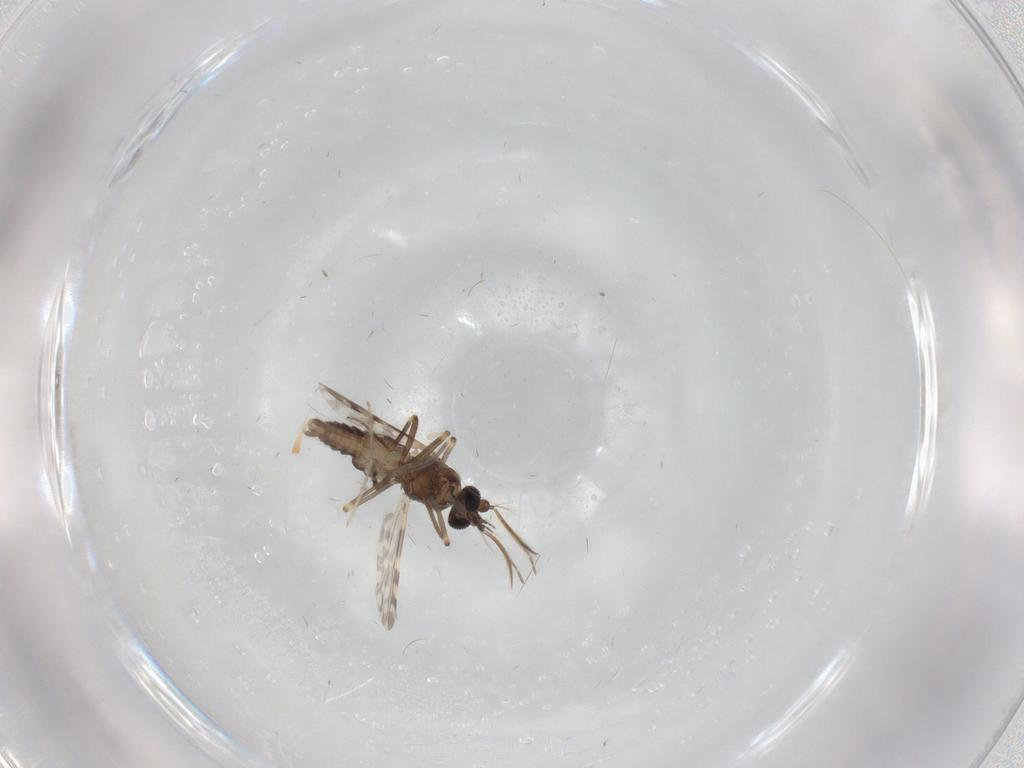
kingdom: Animalia
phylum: Arthropoda
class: Insecta
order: Diptera
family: Ceratopogonidae
